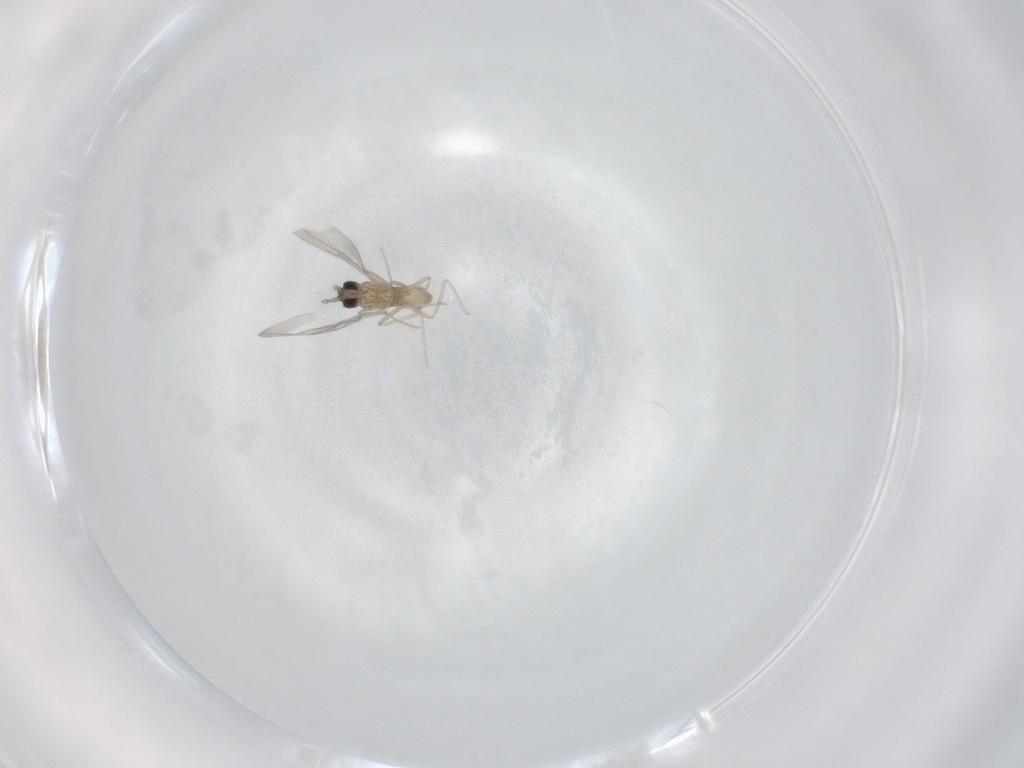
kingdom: Animalia
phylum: Arthropoda
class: Insecta
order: Diptera
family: Cecidomyiidae
